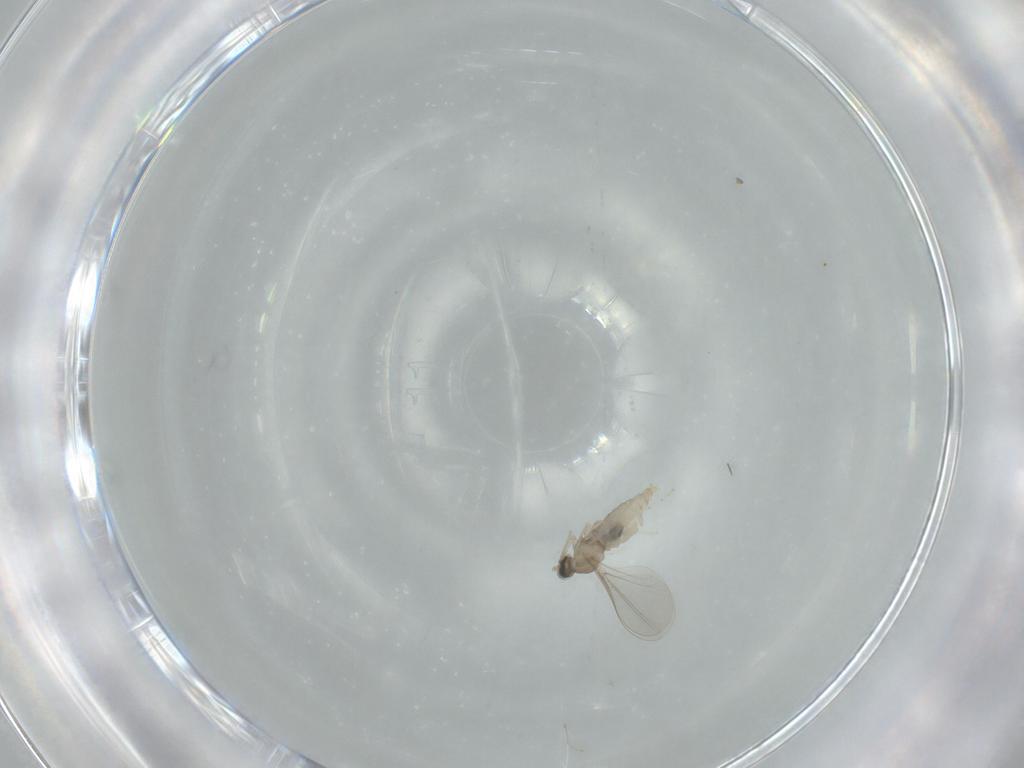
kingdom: Animalia
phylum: Arthropoda
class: Insecta
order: Diptera
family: Cecidomyiidae
